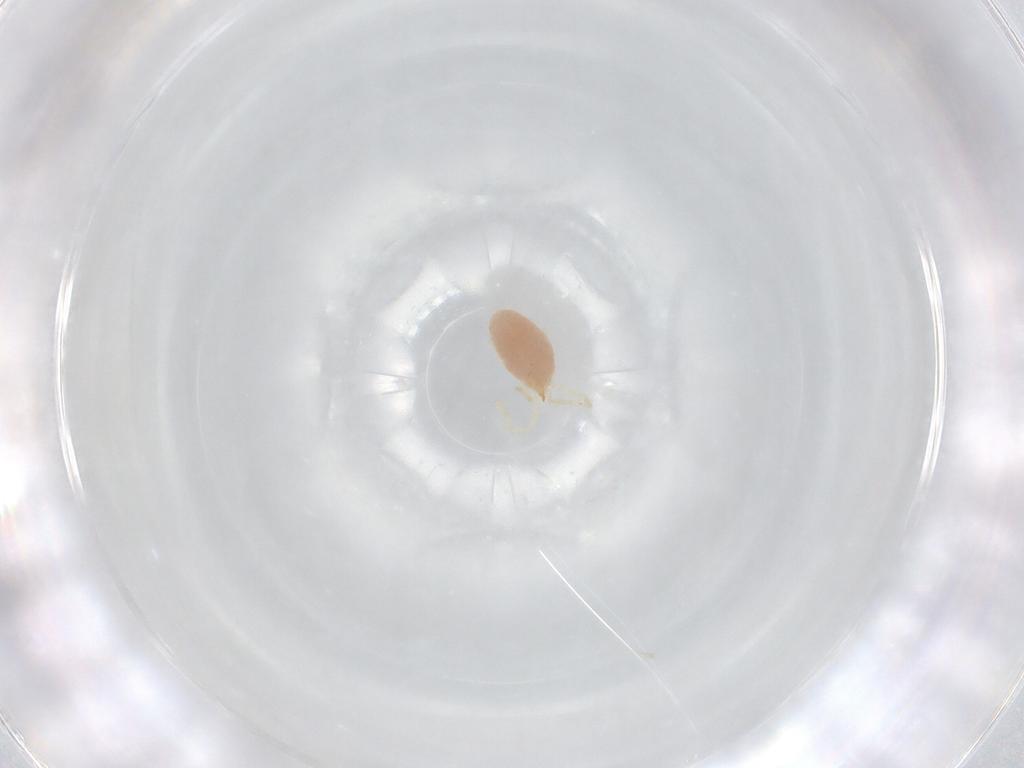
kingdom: Animalia
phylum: Arthropoda
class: Arachnida
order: Trombidiformes
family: Erythraeidae
